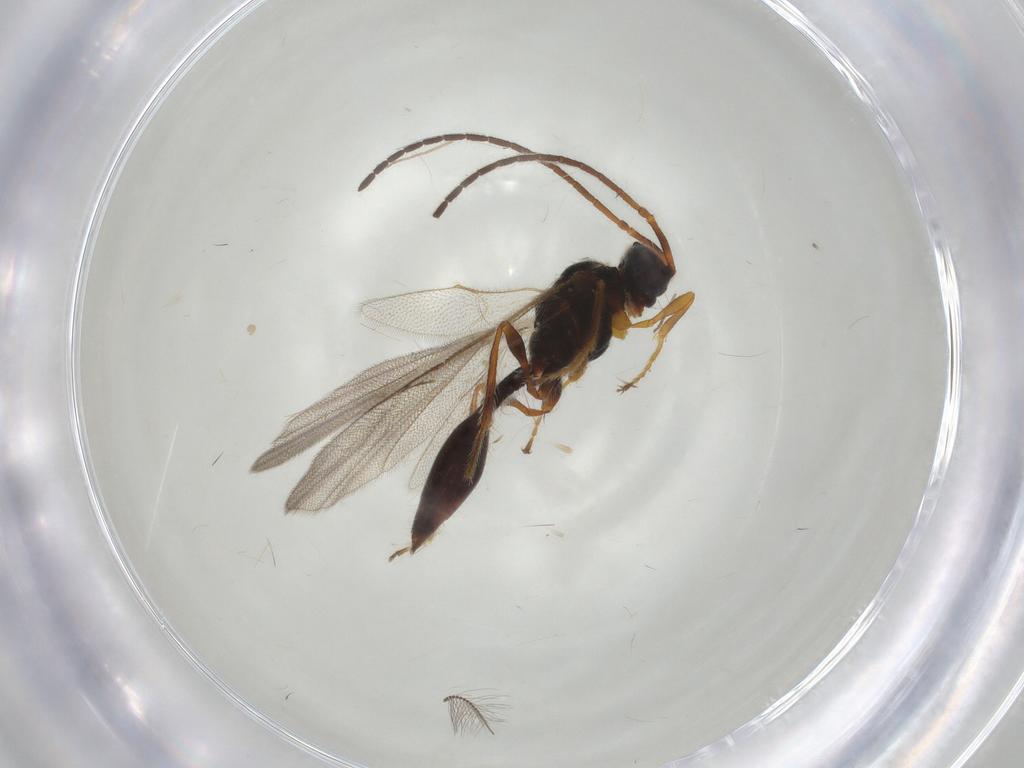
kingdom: Animalia
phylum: Arthropoda
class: Insecta
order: Hymenoptera
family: Diapriidae
